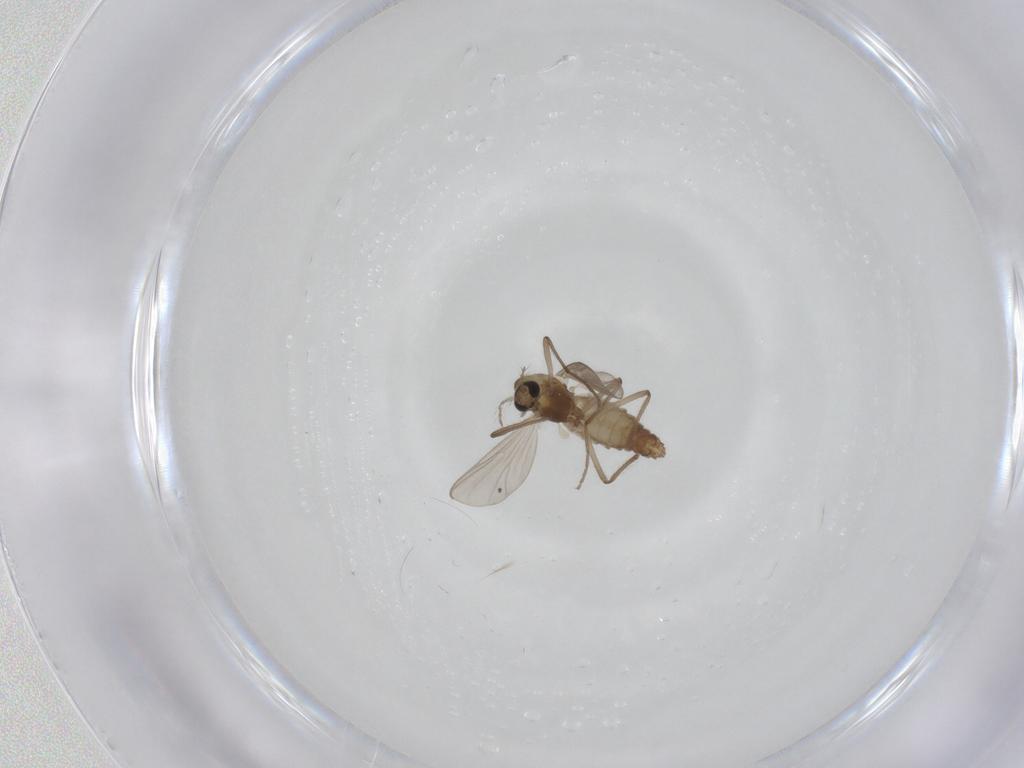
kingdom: Animalia
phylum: Arthropoda
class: Insecta
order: Diptera
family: Chironomidae
